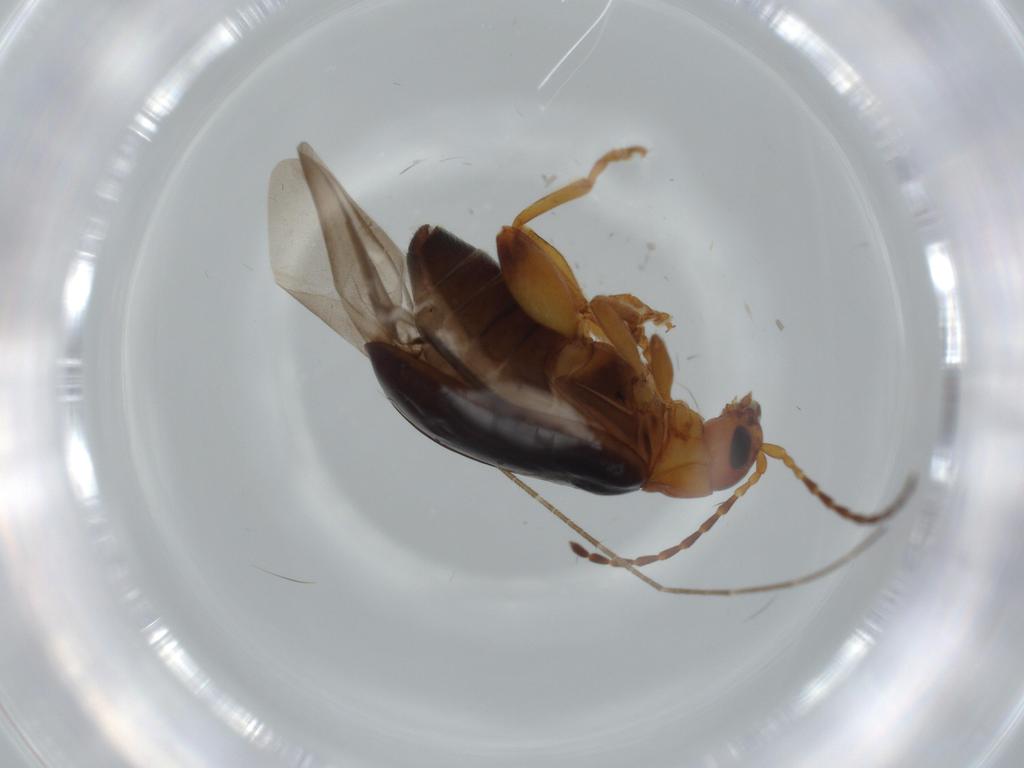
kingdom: Animalia
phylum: Arthropoda
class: Insecta
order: Coleoptera
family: Chrysomelidae
